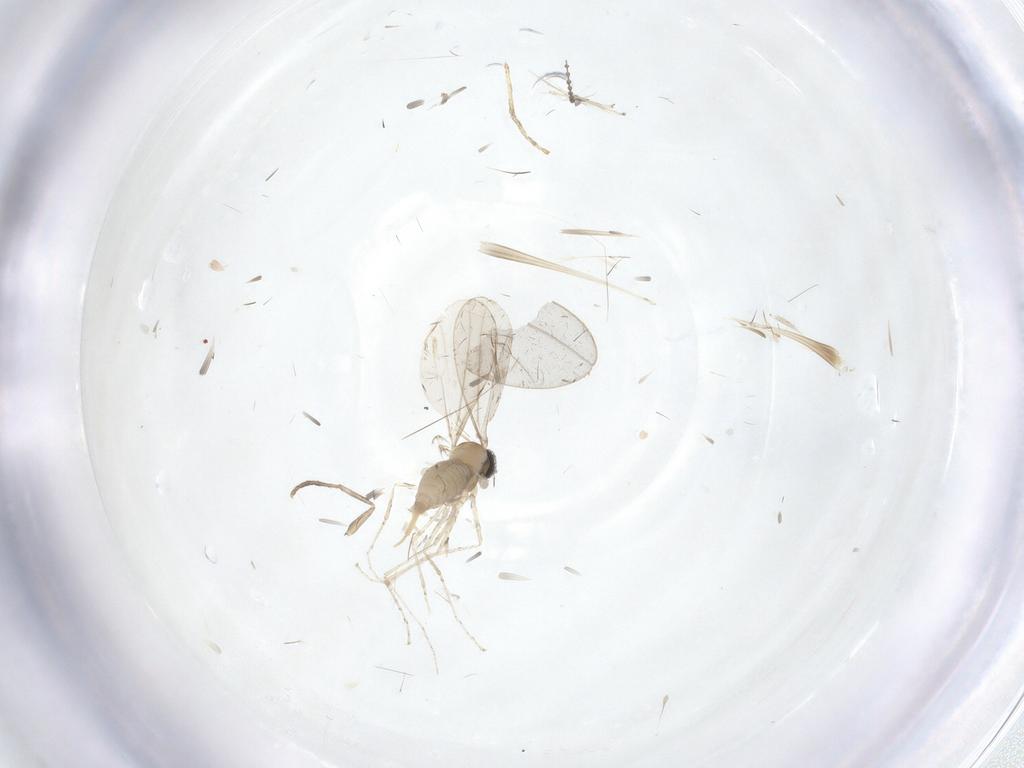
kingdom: Animalia
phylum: Arthropoda
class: Insecta
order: Diptera
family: Cecidomyiidae
